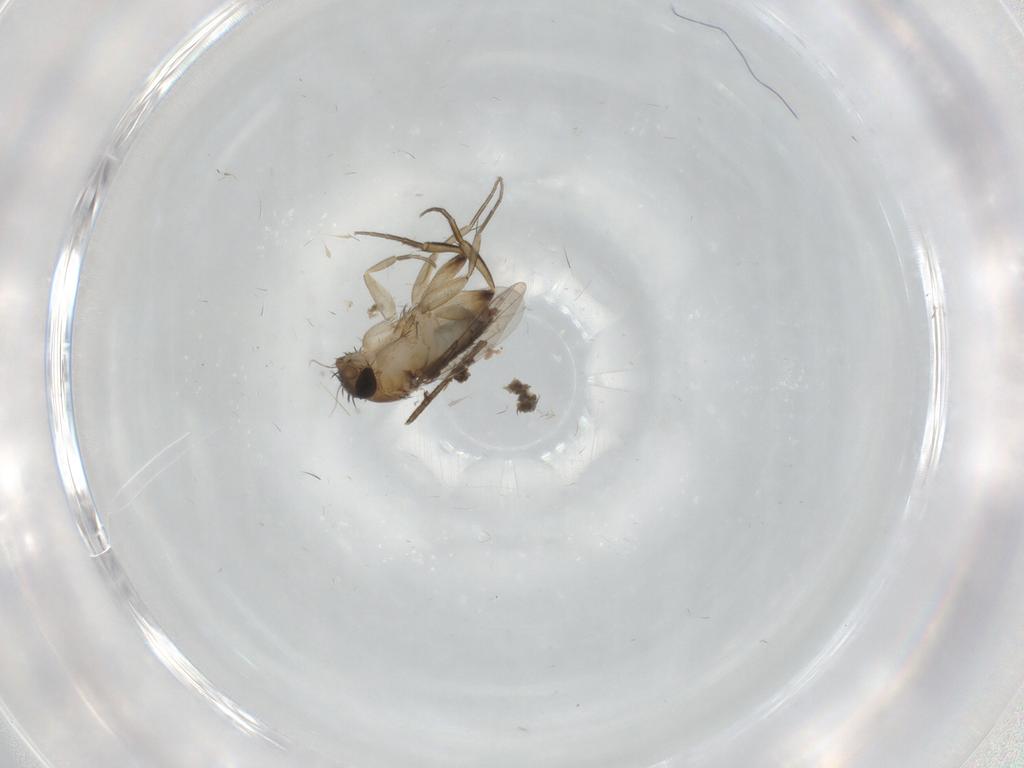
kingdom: Animalia
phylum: Arthropoda
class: Insecta
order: Diptera
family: Phoridae
